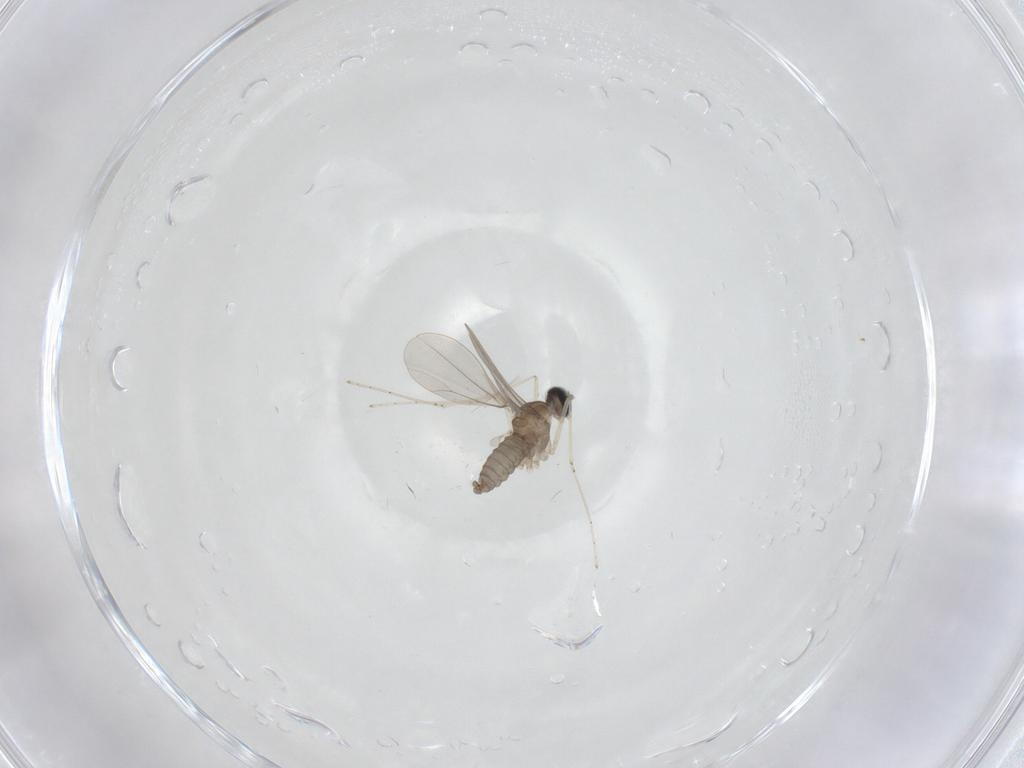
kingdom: Animalia
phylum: Arthropoda
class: Insecta
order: Diptera
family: Cecidomyiidae
